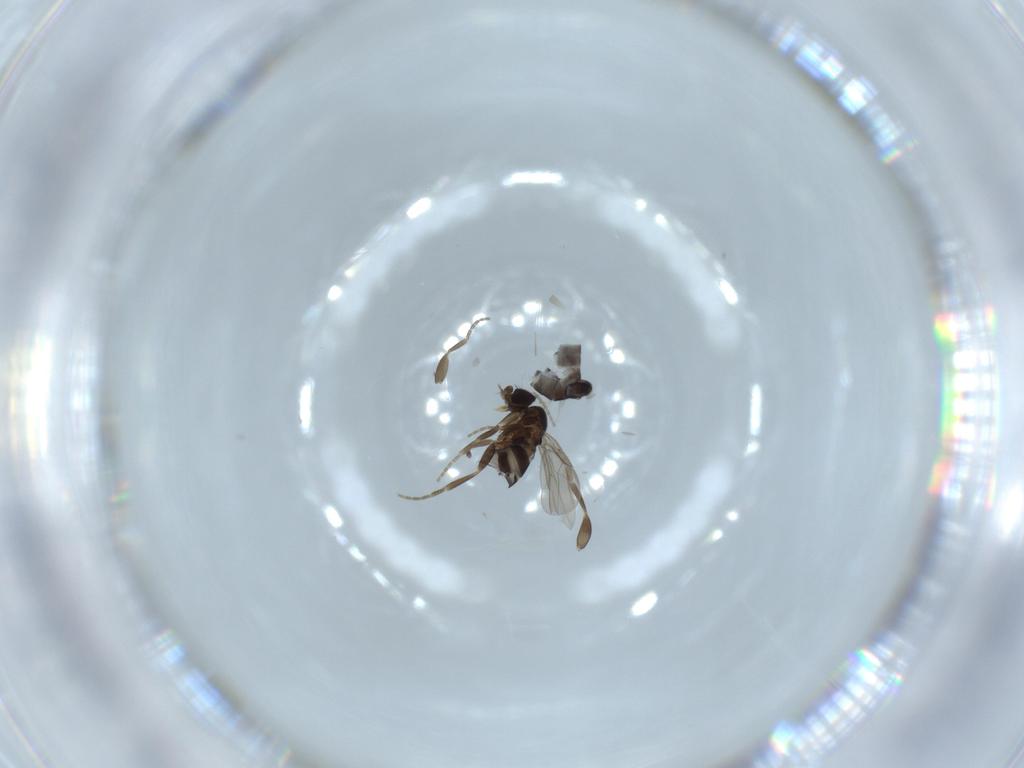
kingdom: Animalia
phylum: Arthropoda
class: Insecta
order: Diptera
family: Phoridae
